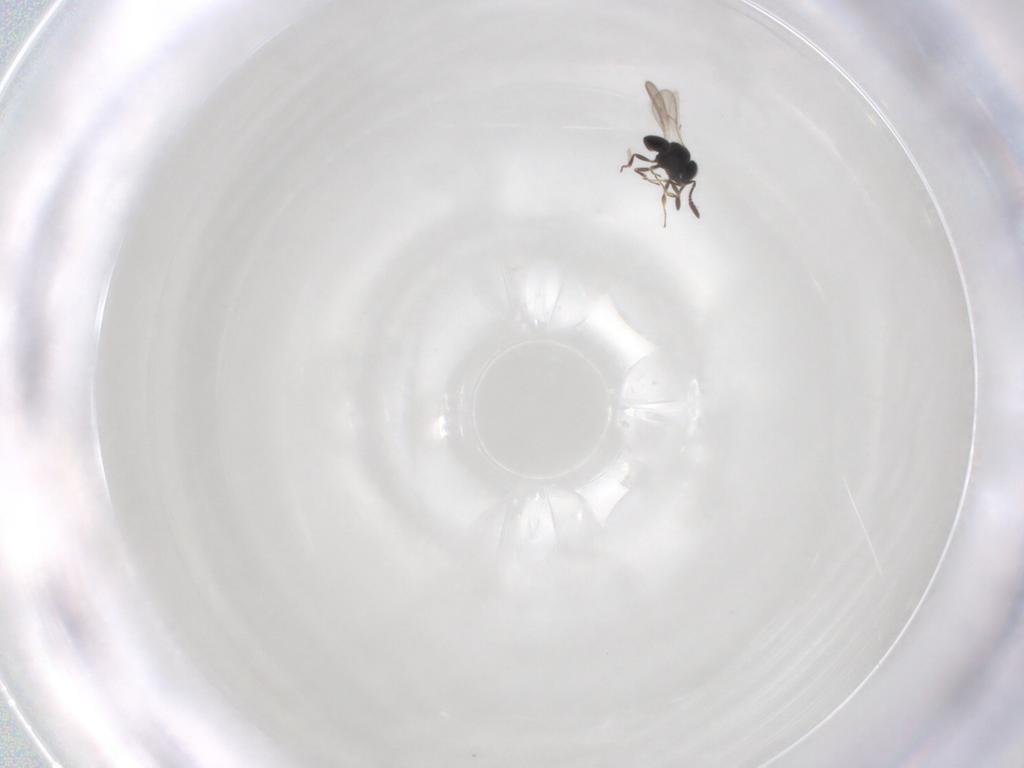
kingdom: Animalia
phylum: Arthropoda
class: Insecta
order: Hymenoptera
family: Scelionidae
